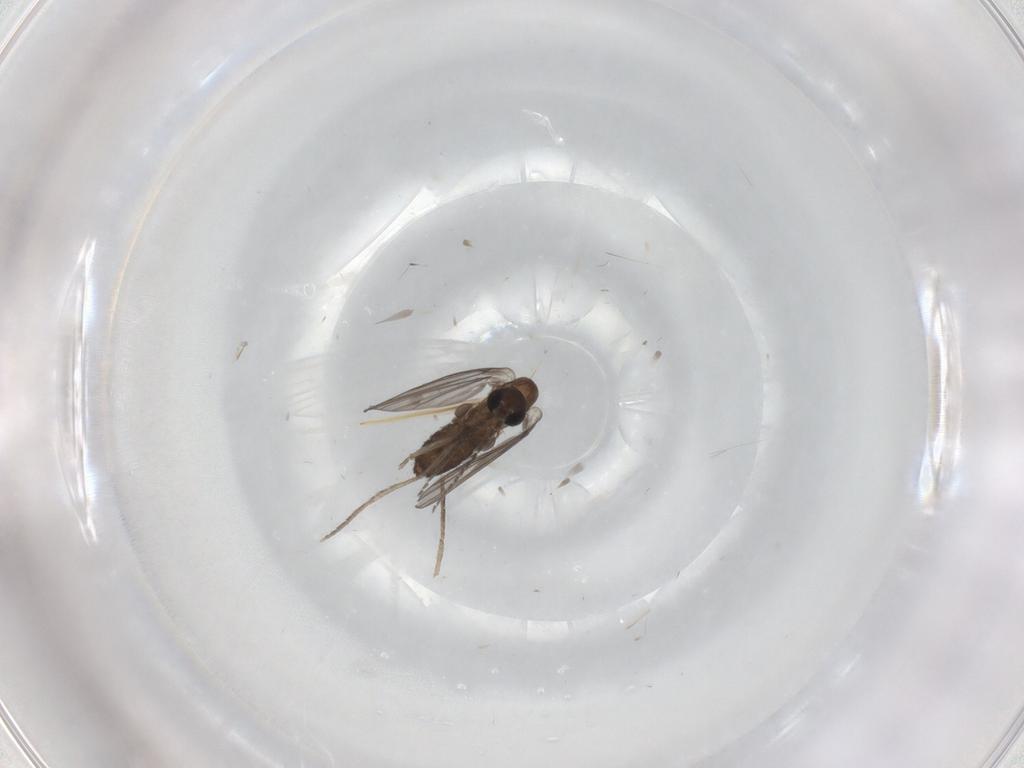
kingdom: Animalia
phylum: Arthropoda
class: Insecta
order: Diptera
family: Psychodidae
